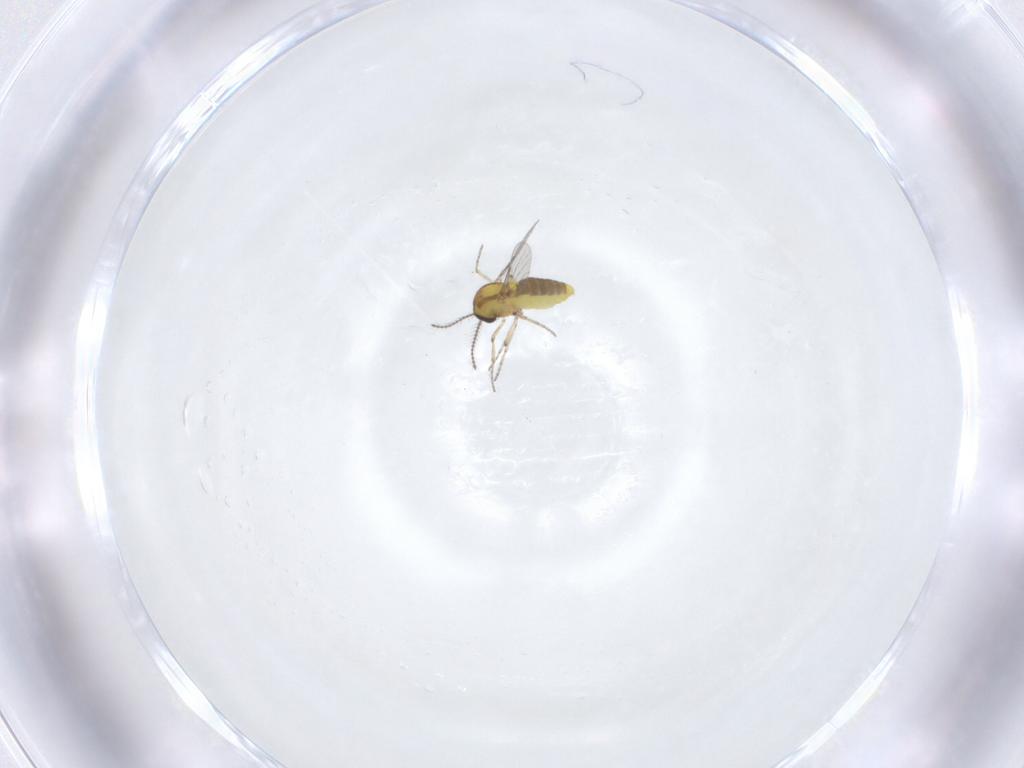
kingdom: Animalia
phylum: Arthropoda
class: Insecta
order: Diptera
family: Ceratopogonidae
